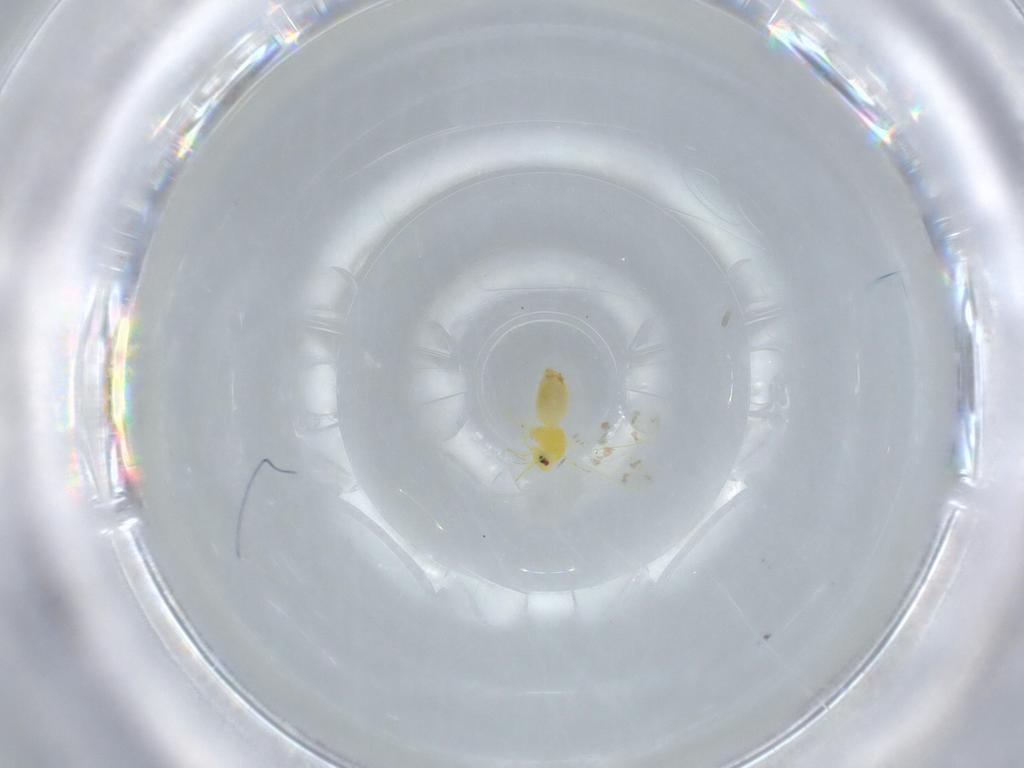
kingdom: Animalia
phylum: Arthropoda
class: Insecta
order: Hemiptera
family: Aleyrodidae
